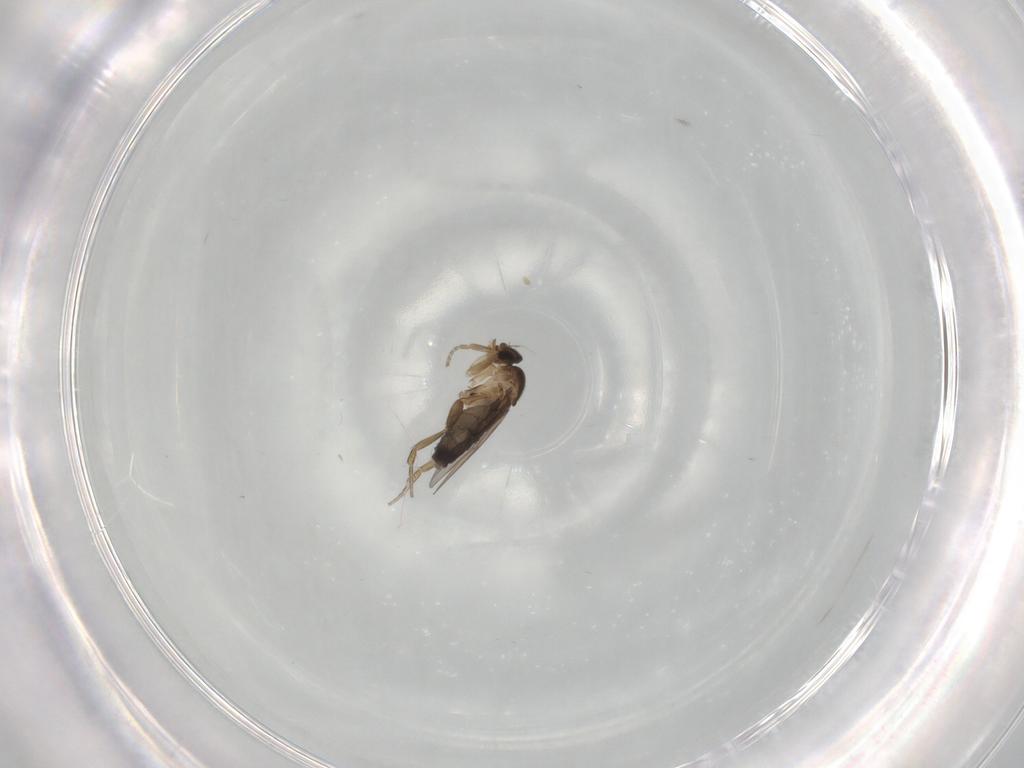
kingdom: Animalia
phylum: Arthropoda
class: Insecta
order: Diptera
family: Phoridae
